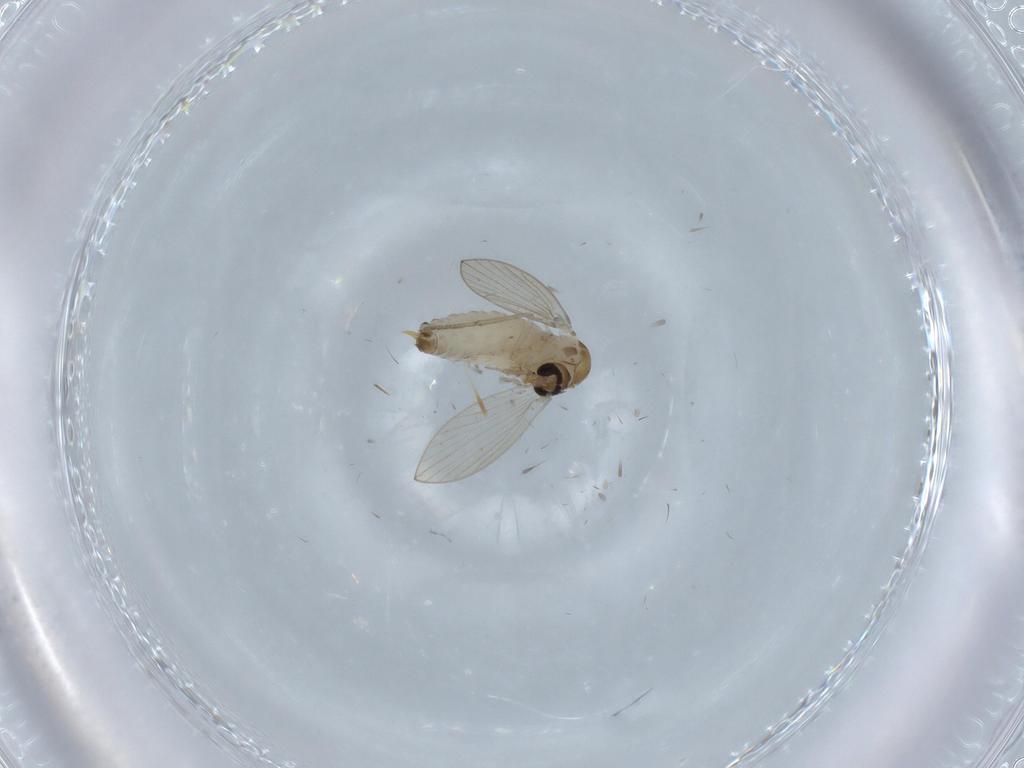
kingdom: Animalia
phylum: Arthropoda
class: Insecta
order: Diptera
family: Psychodidae
